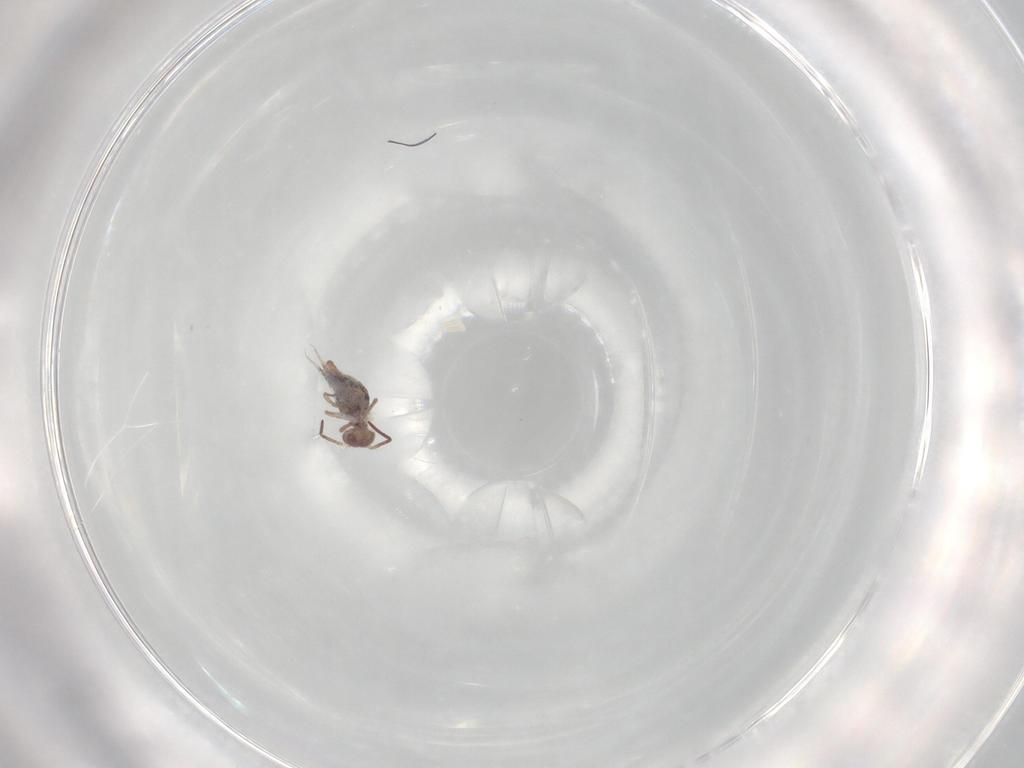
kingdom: Animalia
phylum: Arthropoda
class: Collembola
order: Symphypleona
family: Bourletiellidae
